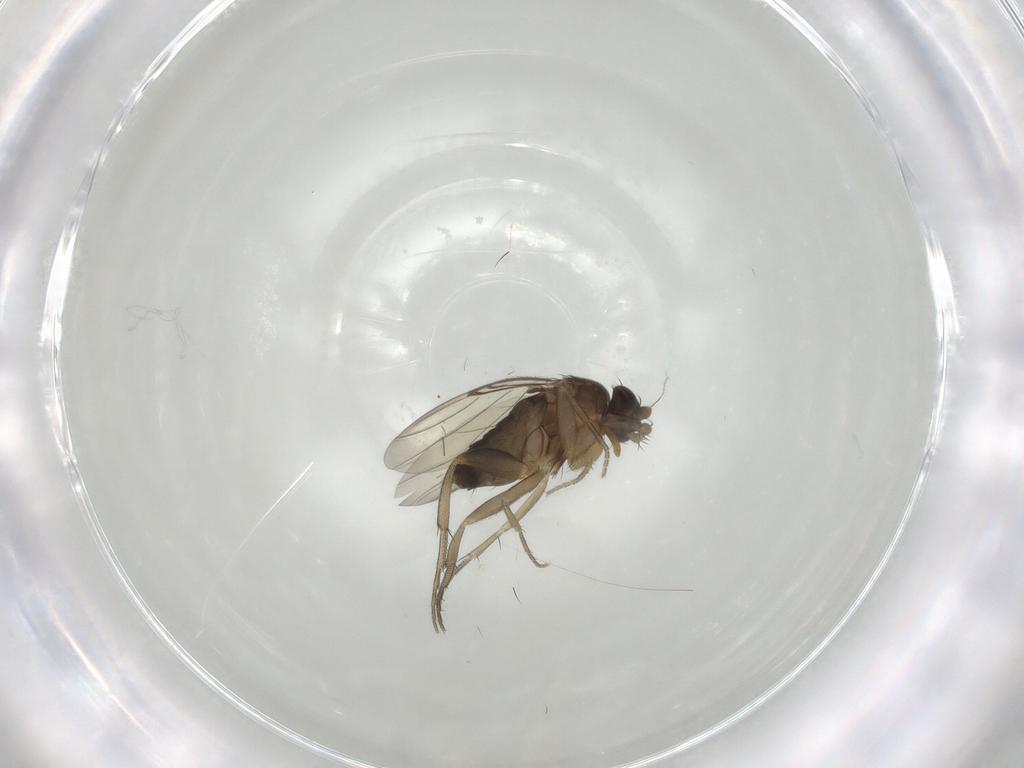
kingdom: Animalia
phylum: Arthropoda
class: Insecta
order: Diptera
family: Phoridae
